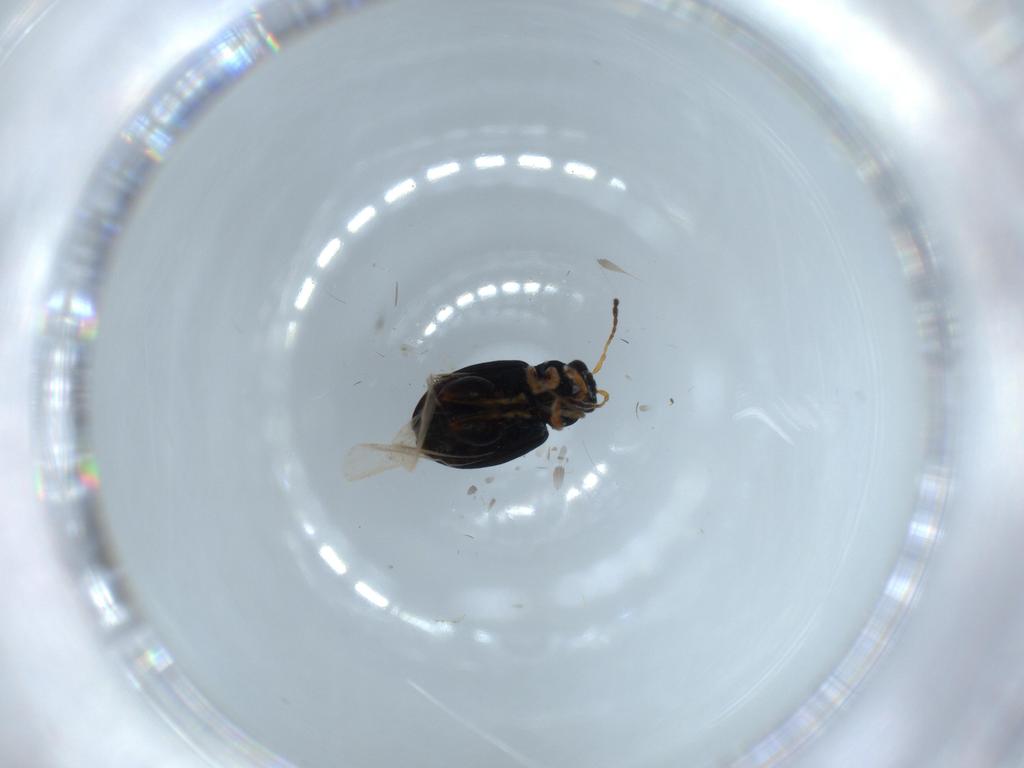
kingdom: Animalia
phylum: Arthropoda
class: Insecta
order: Coleoptera
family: Chrysomelidae
